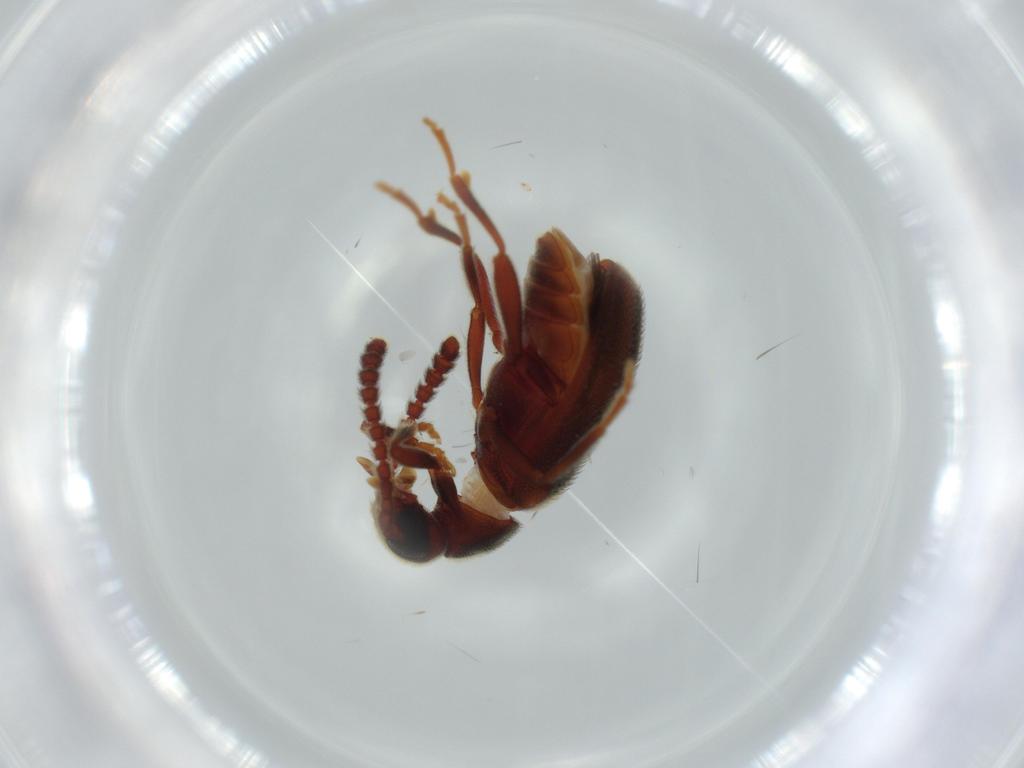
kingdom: Animalia
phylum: Arthropoda
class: Insecta
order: Coleoptera
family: Aderidae
